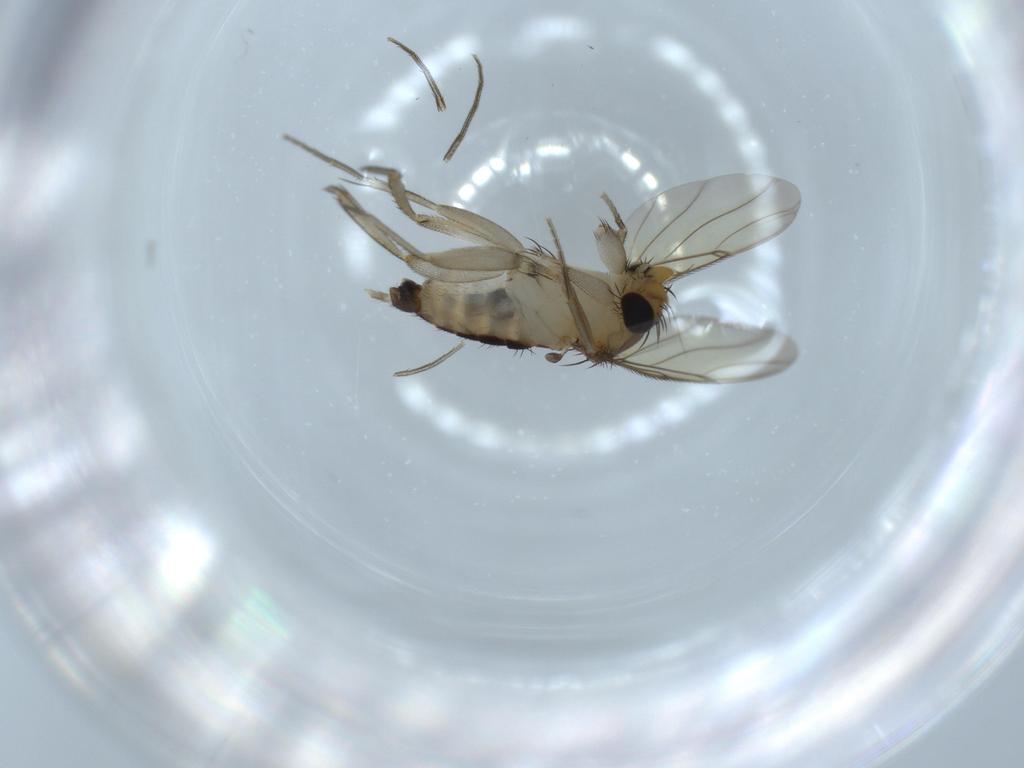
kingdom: Animalia
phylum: Arthropoda
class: Insecta
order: Diptera
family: Phoridae
